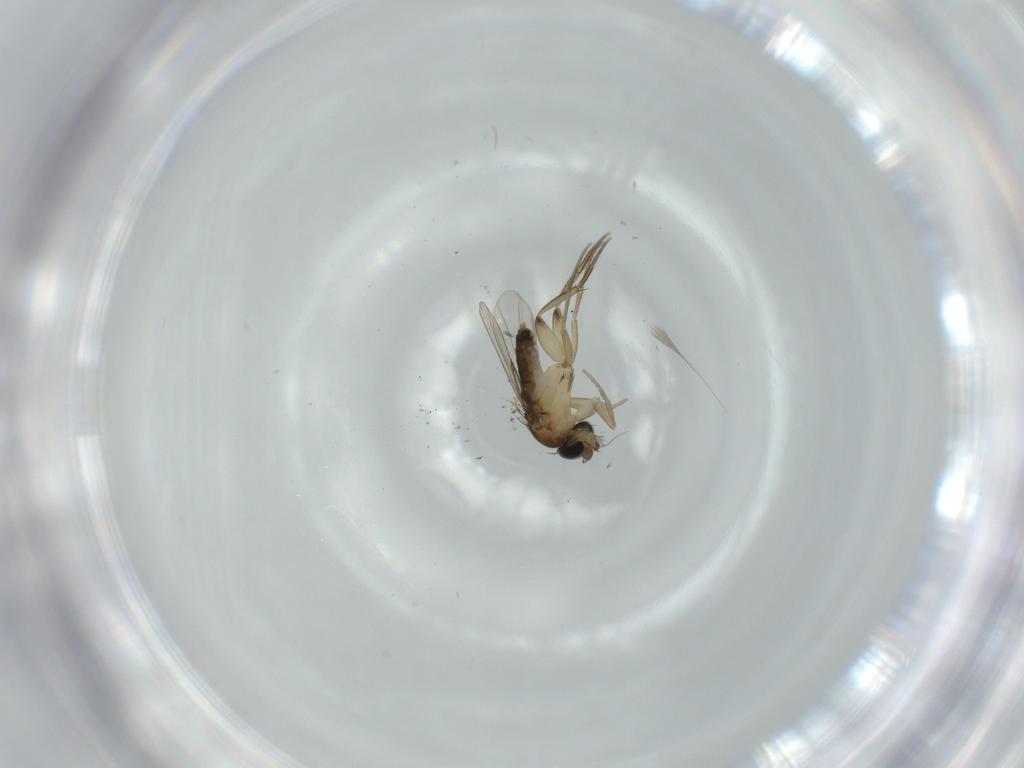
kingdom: Animalia
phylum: Arthropoda
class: Insecta
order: Diptera
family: Phoridae
